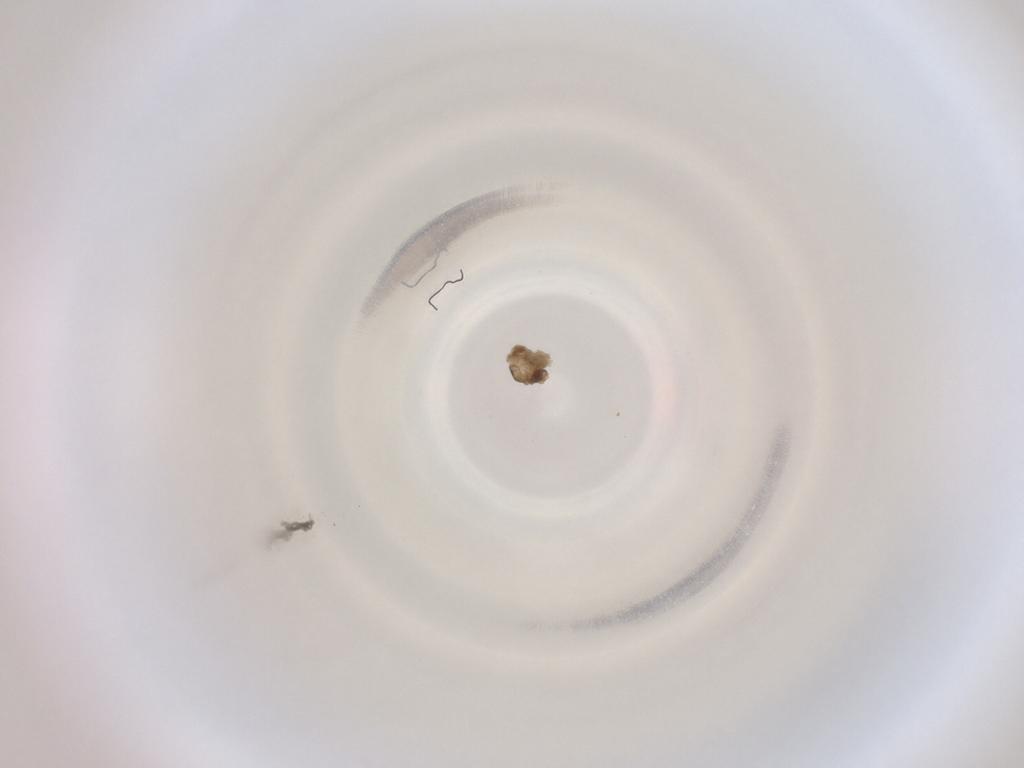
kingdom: Animalia
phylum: Arthropoda
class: Insecta
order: Diptera
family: Cecidomyiidae
